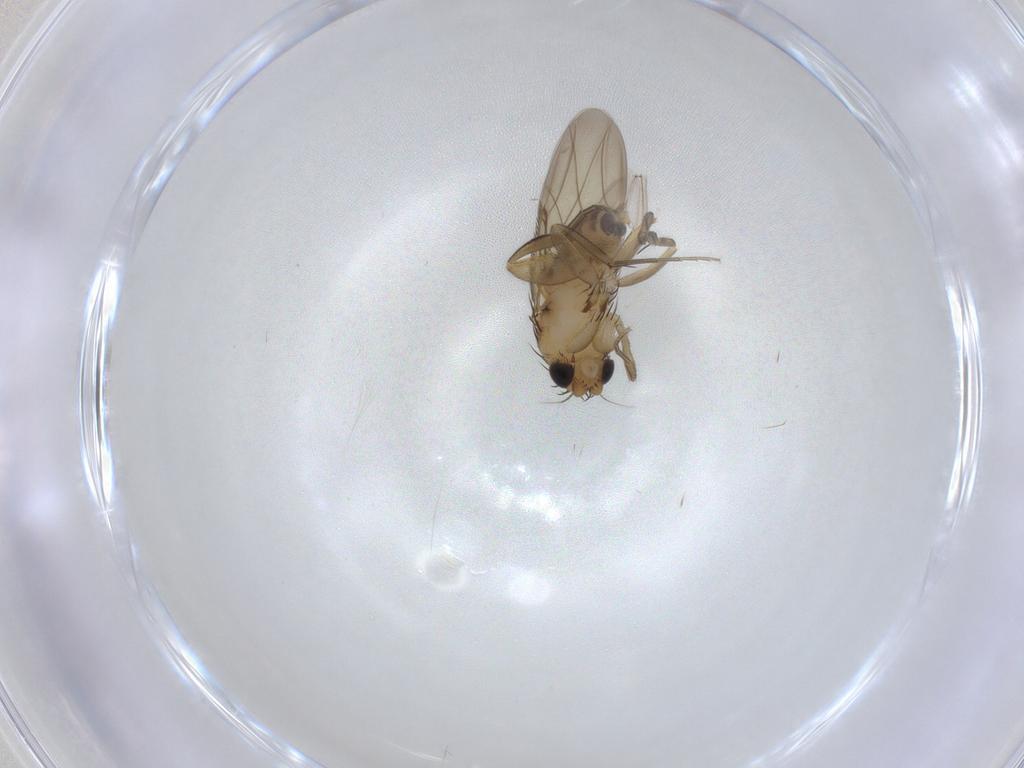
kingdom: Animalia
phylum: Arthropoda
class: Insecta
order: Diptera
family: Phoridae
